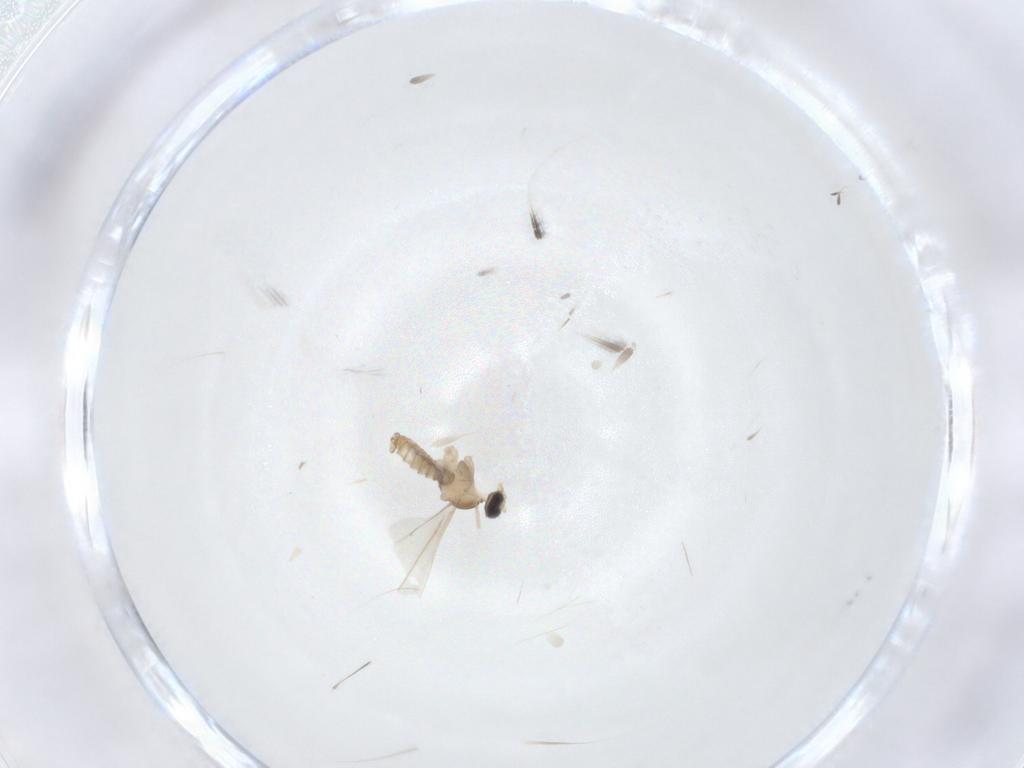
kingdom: Animalia
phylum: Arthropoda
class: Insecta
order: Diptera
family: Cecidomyiidae
